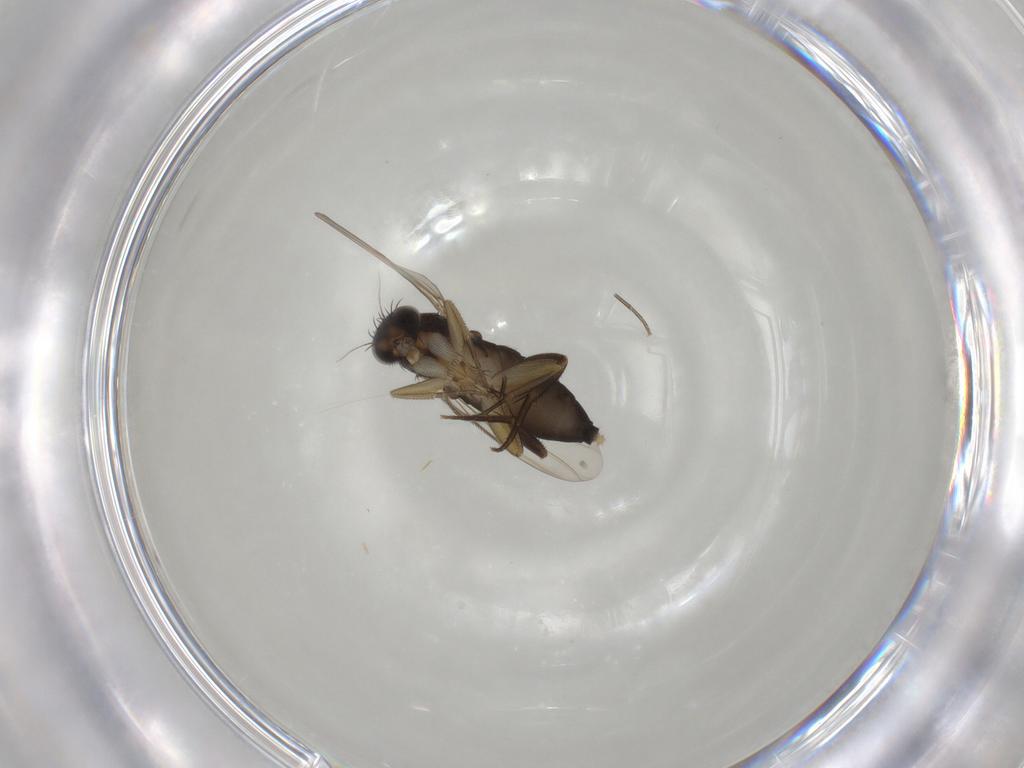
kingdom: Animalia
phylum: Arthropoda
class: Insecta
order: Diptera
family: Phoridae
